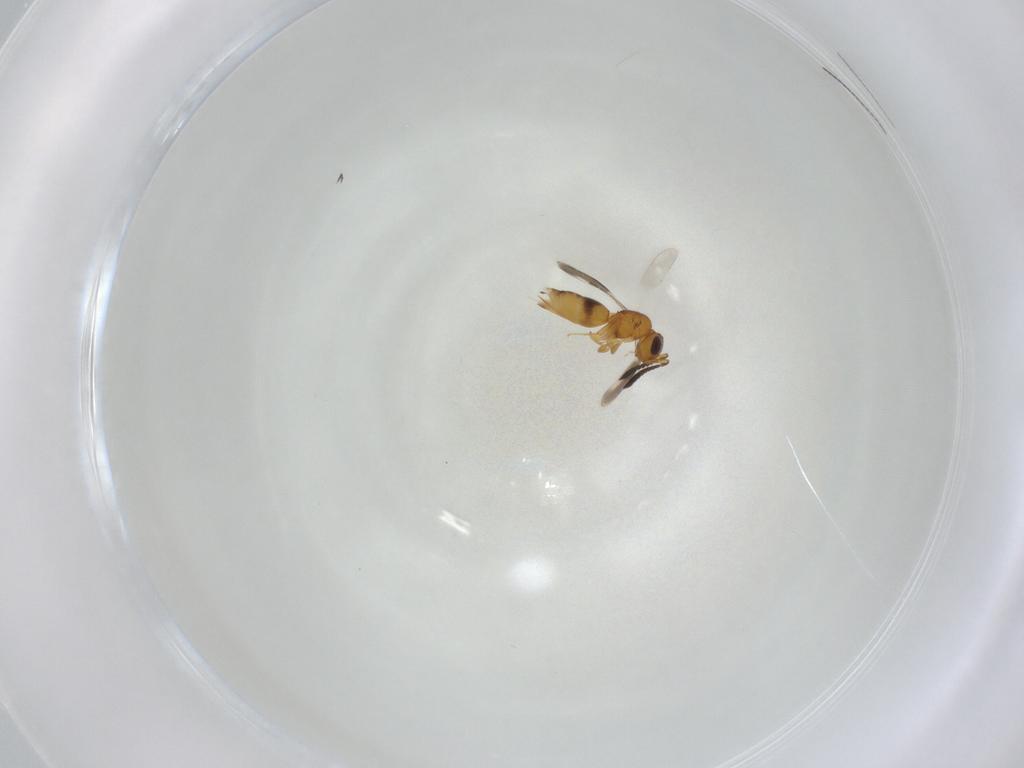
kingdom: Animalia
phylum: Arthropoda
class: Insecta
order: Hymenoptera
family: Ceraphronidae
